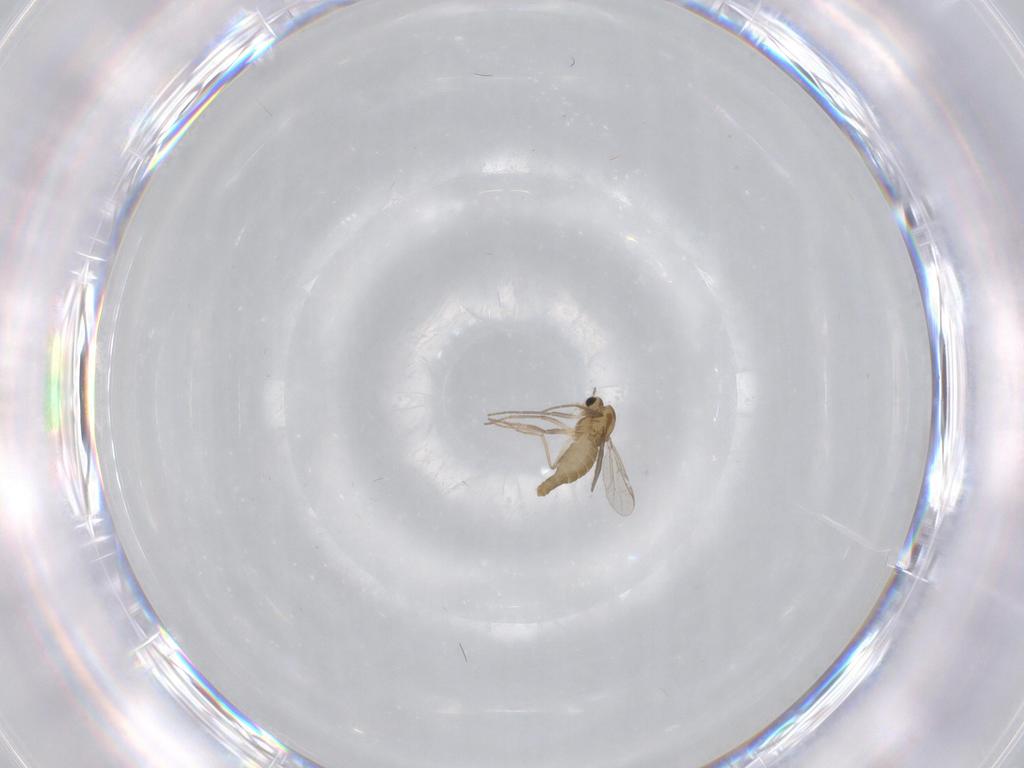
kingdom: Animalia
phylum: Arthropoda
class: Insecta
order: Diptera
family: Chironomidae
